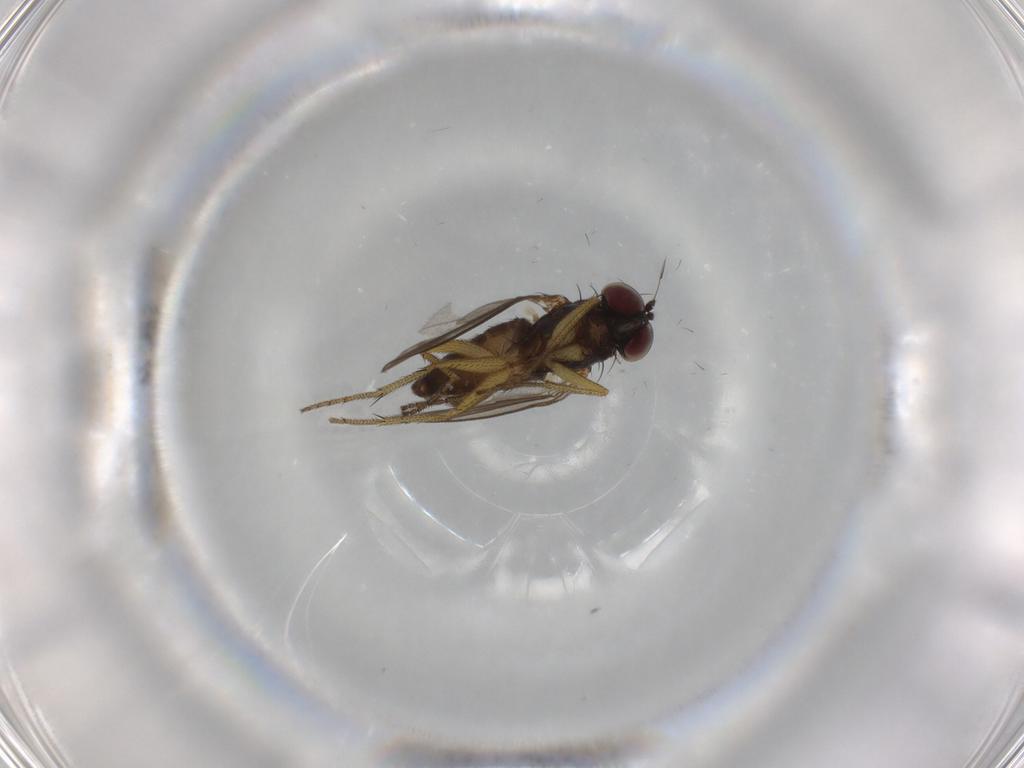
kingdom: Animalia
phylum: Arthropoda
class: Insecta
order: Diptera
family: Dolichopodidae
